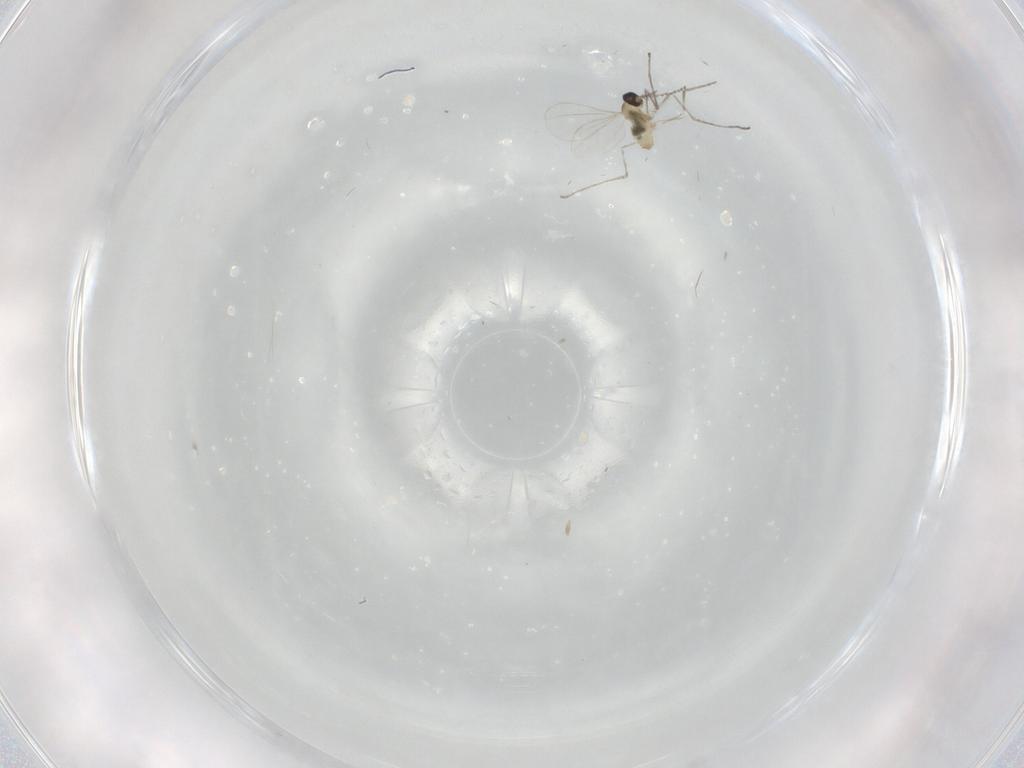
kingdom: Animalia
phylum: Arthropoda
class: Insecta
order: Diptera
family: Cecidomyiidae
